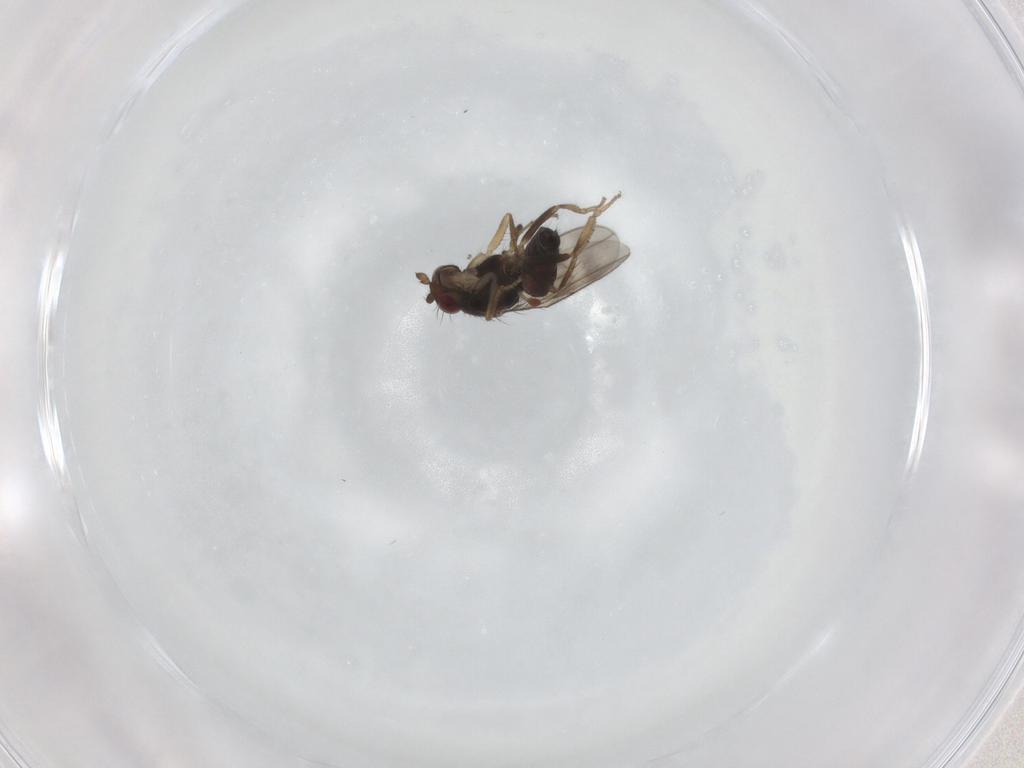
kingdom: Animalia
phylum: Arthropoda
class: Insecta
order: Diptera
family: Sphaeroceridae
